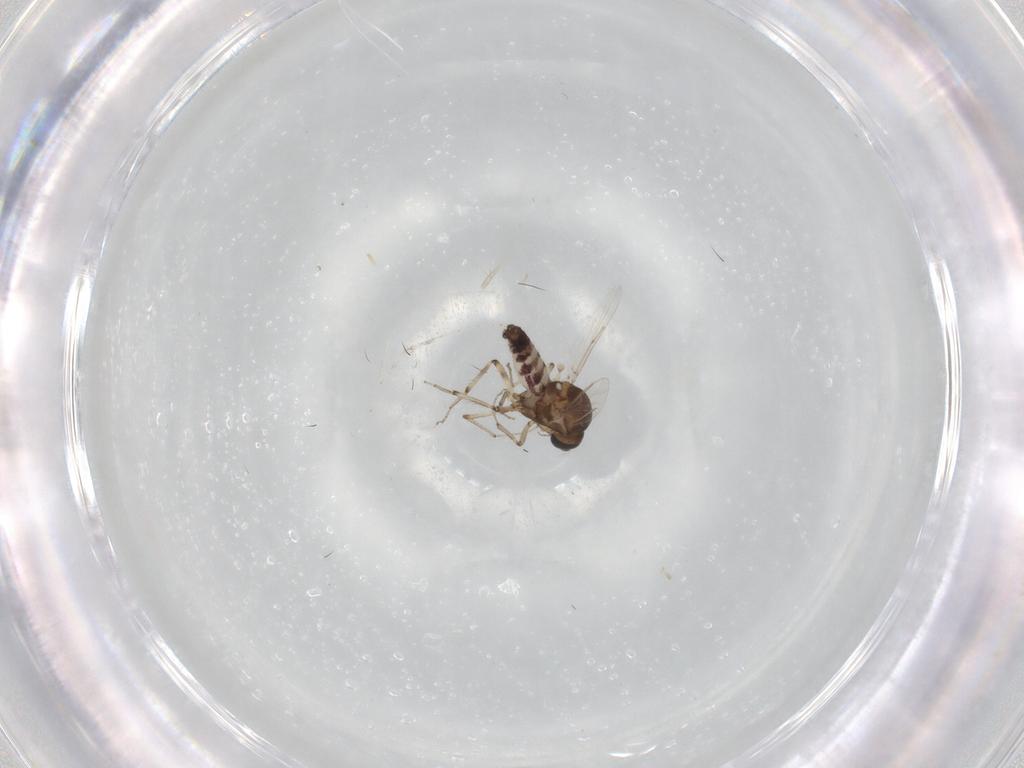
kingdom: Animalia
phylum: Arthropoda
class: Insecta
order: Diptera
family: Ceratopogonidae
